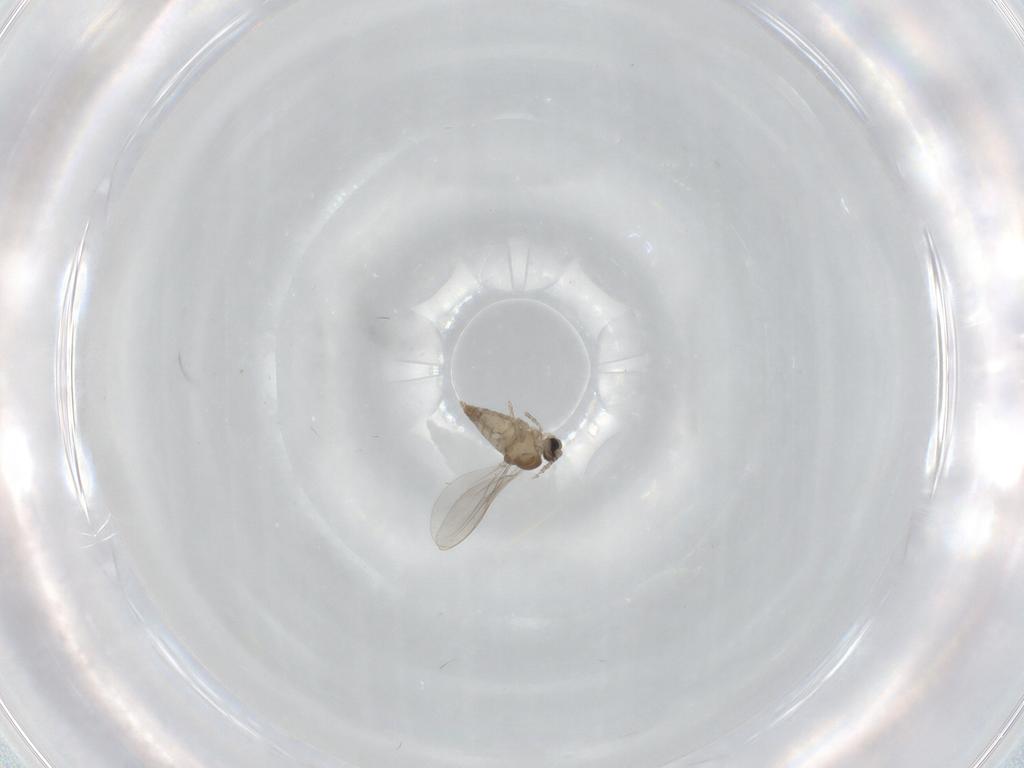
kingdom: Animalia
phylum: Arthropoda
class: Insecta
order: Diptera
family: Cecidomyiidae
